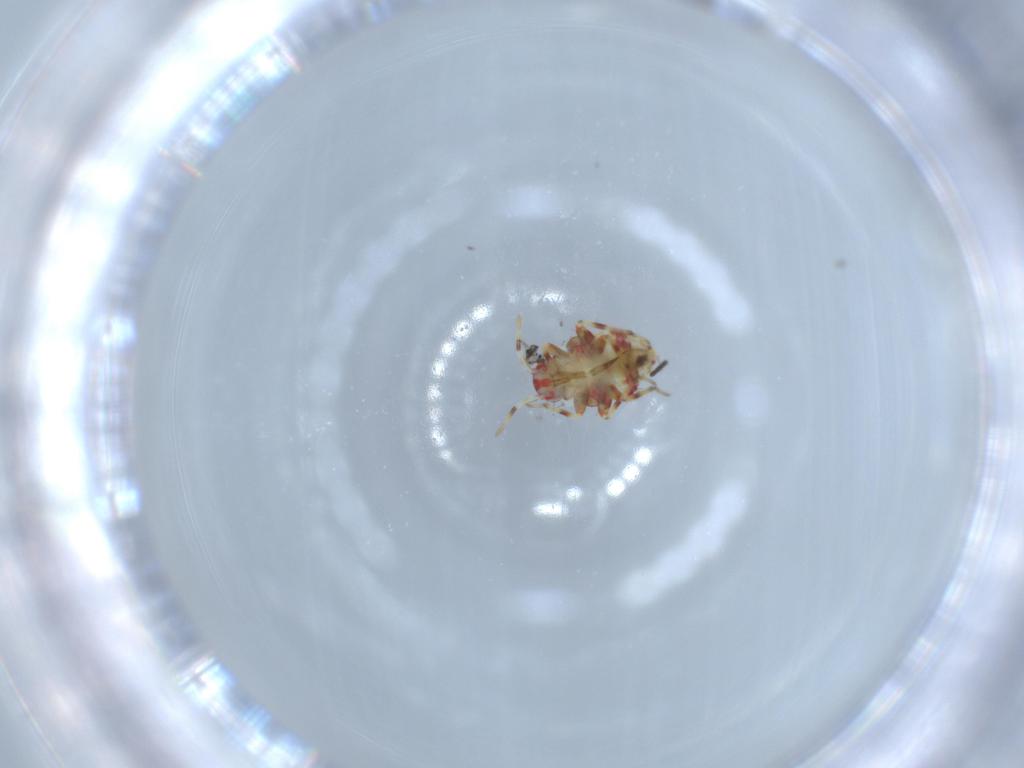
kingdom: Animalia
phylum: Arthropoda
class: Insecta
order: Hemiptera
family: Miridae
